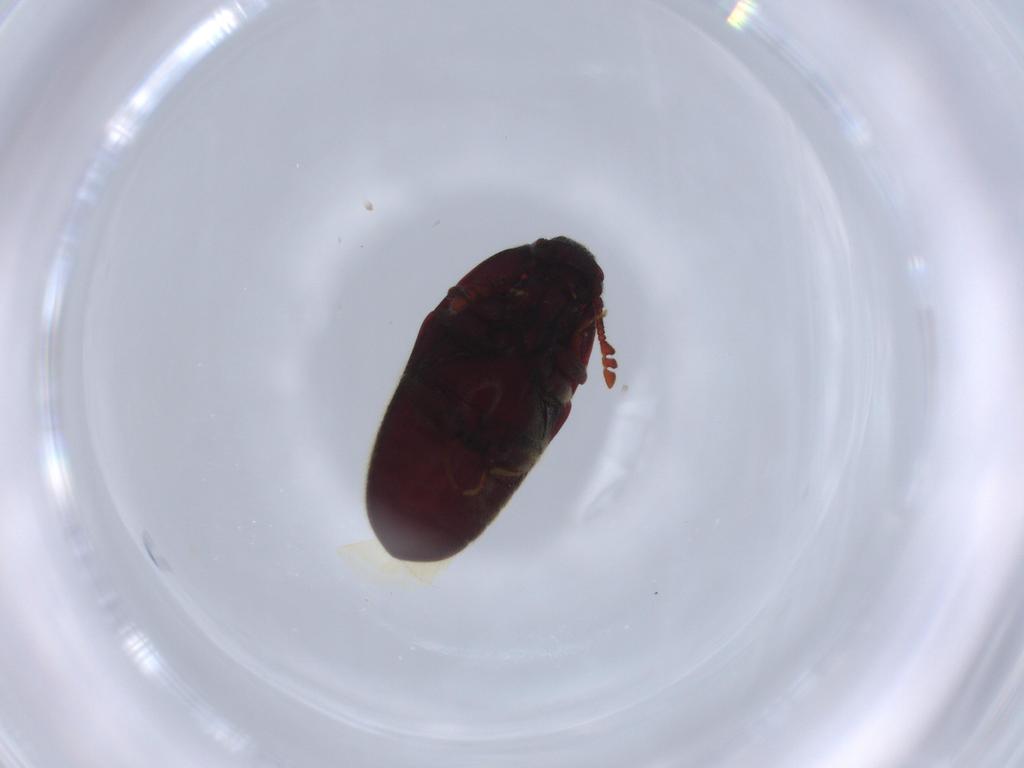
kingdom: Animalia
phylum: Arthropoda
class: Insecta
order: Coleoptera
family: Throscidae
